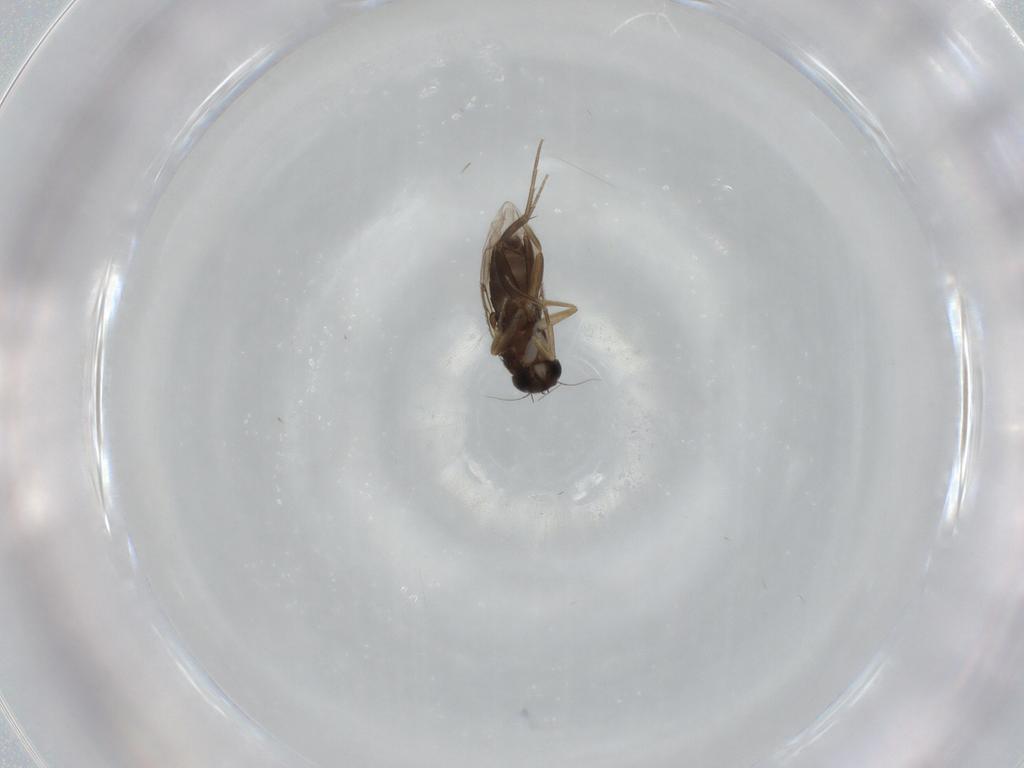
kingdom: Animalia
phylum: Arthropoda
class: Insecta
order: Diptera
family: Phoridae
